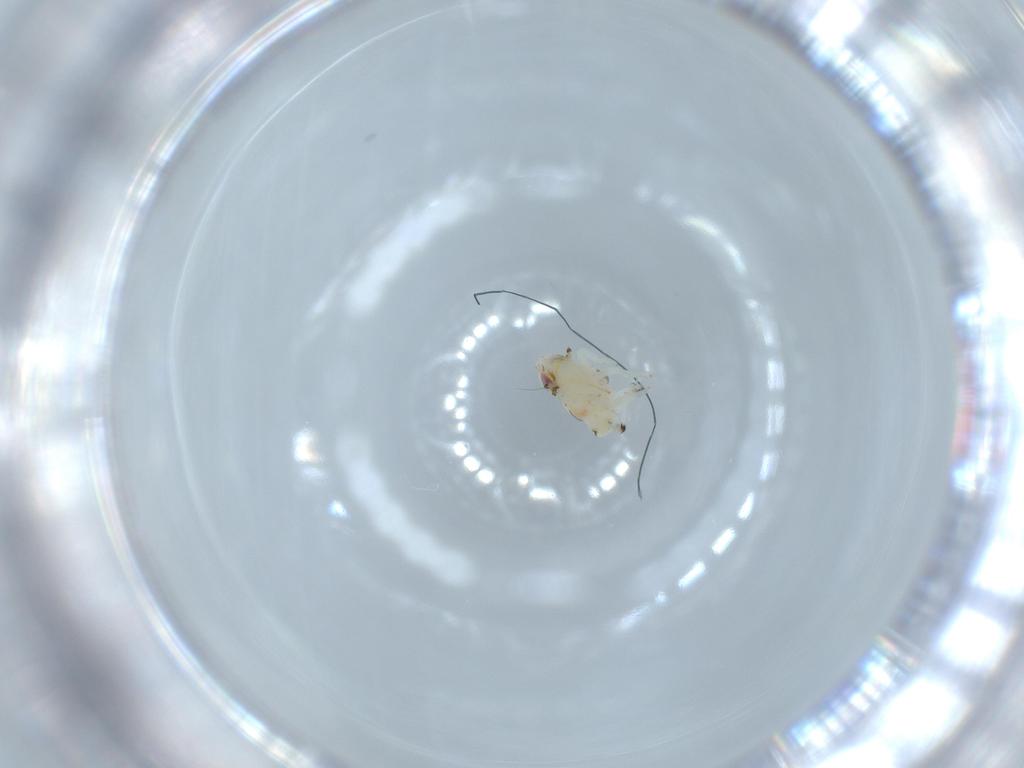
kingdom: Animalia
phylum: Arthropoda
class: Insecta
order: Hemiptera
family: Nogodinidae
